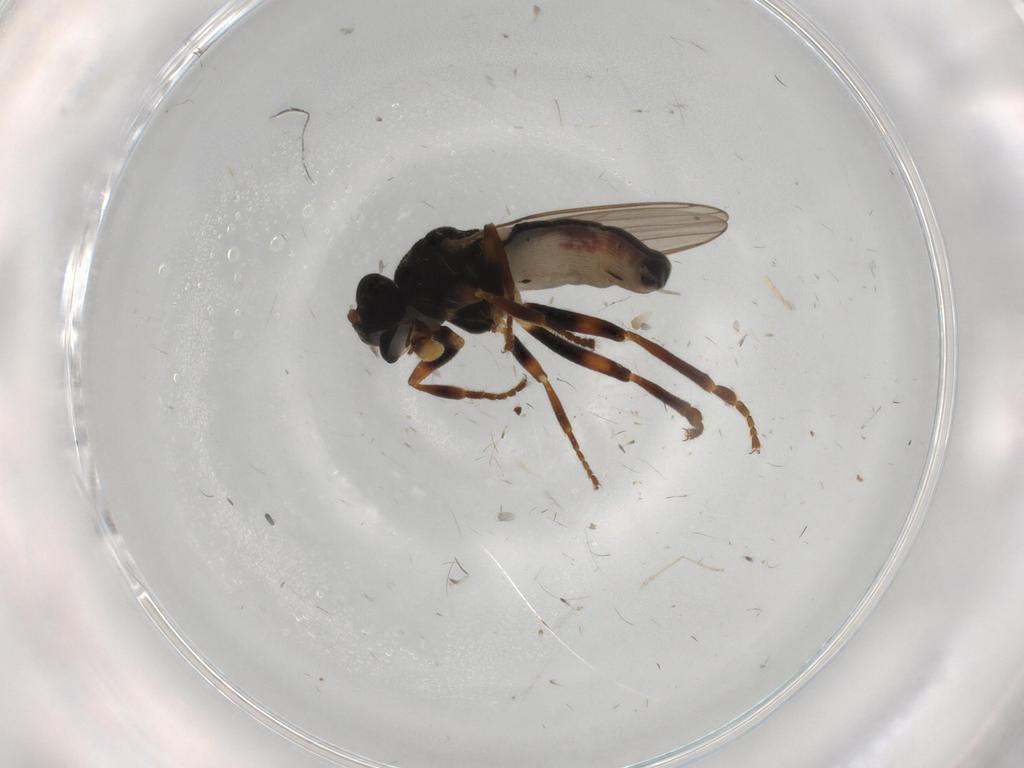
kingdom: Animalia
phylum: Arthropoda
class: Insecta
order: Diptera
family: Sphaeroceridae
